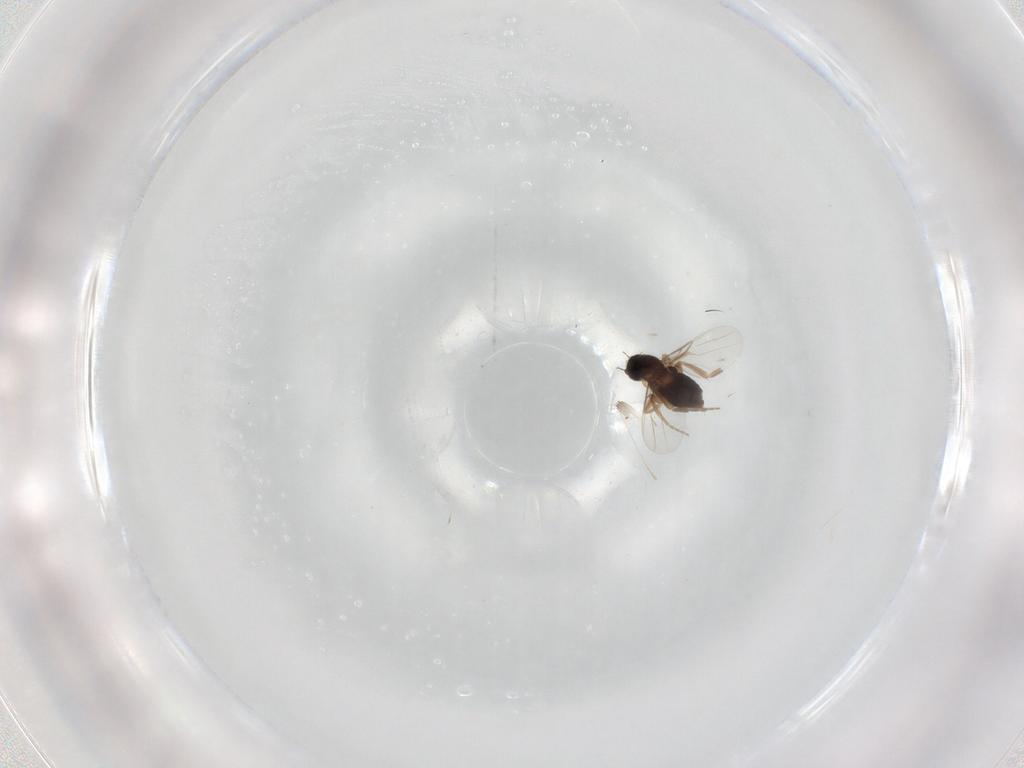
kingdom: Animalia
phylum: Arthropoda
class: Insecta
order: Diptera
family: Phoridae
